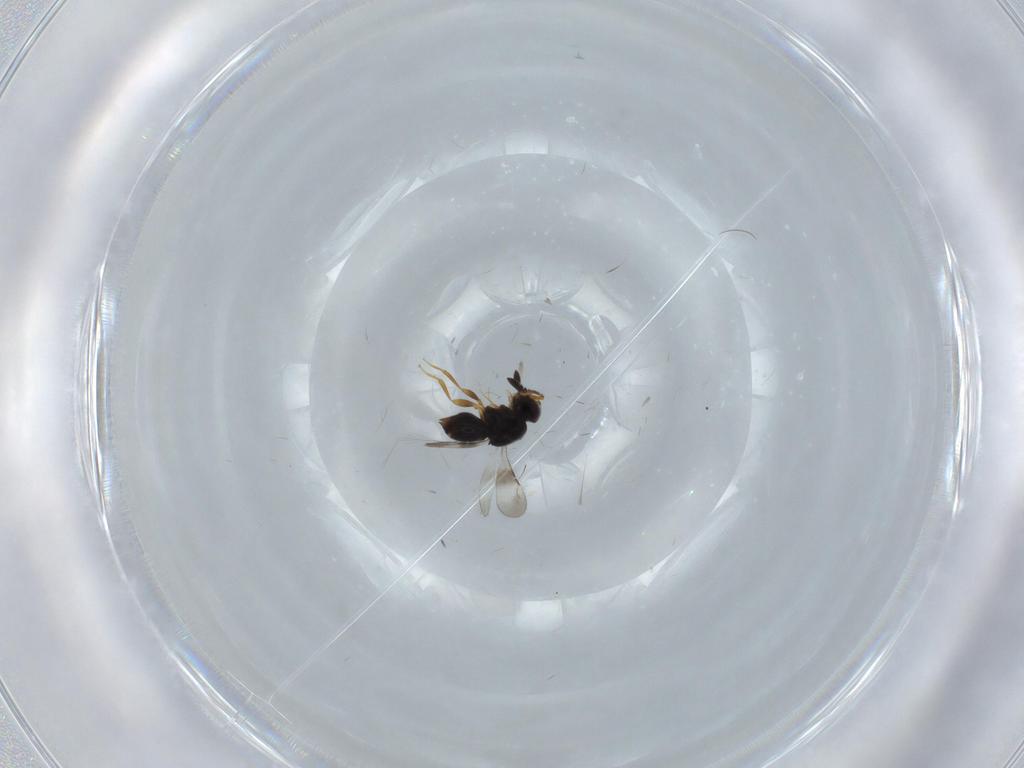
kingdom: Animalia
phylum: Arthropoda
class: Insecta
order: Hymenoptera
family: Ceraphronidae
